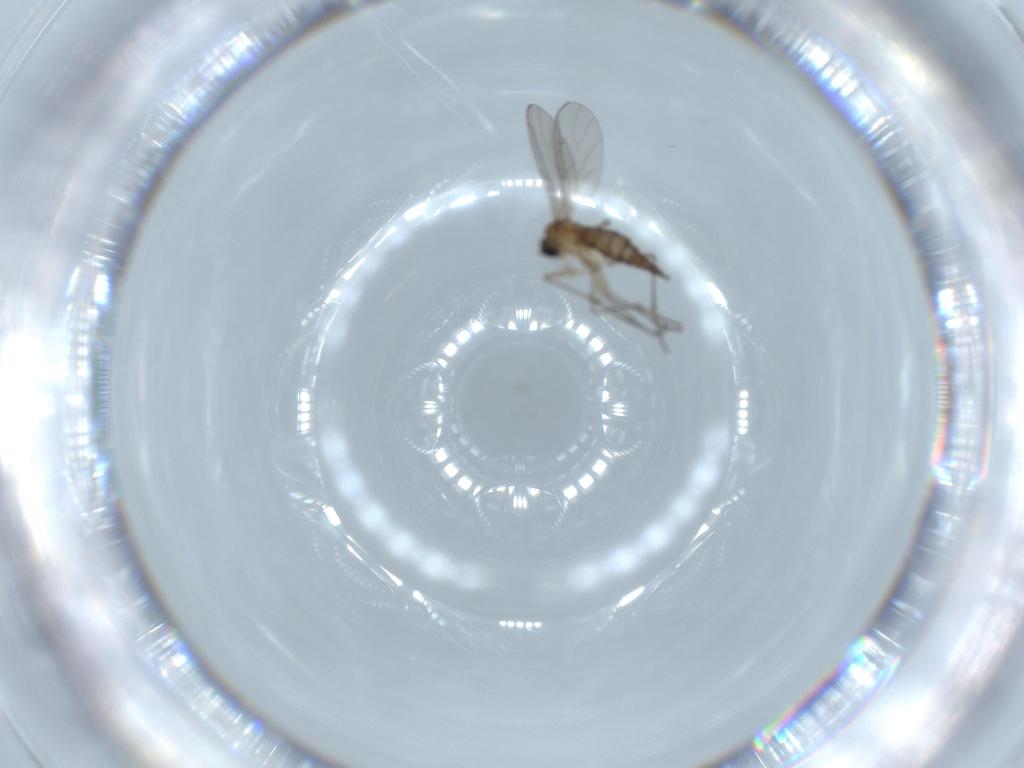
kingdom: Animalia
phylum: Arthropoda
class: Insecta
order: Diptera
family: Sciaridae
